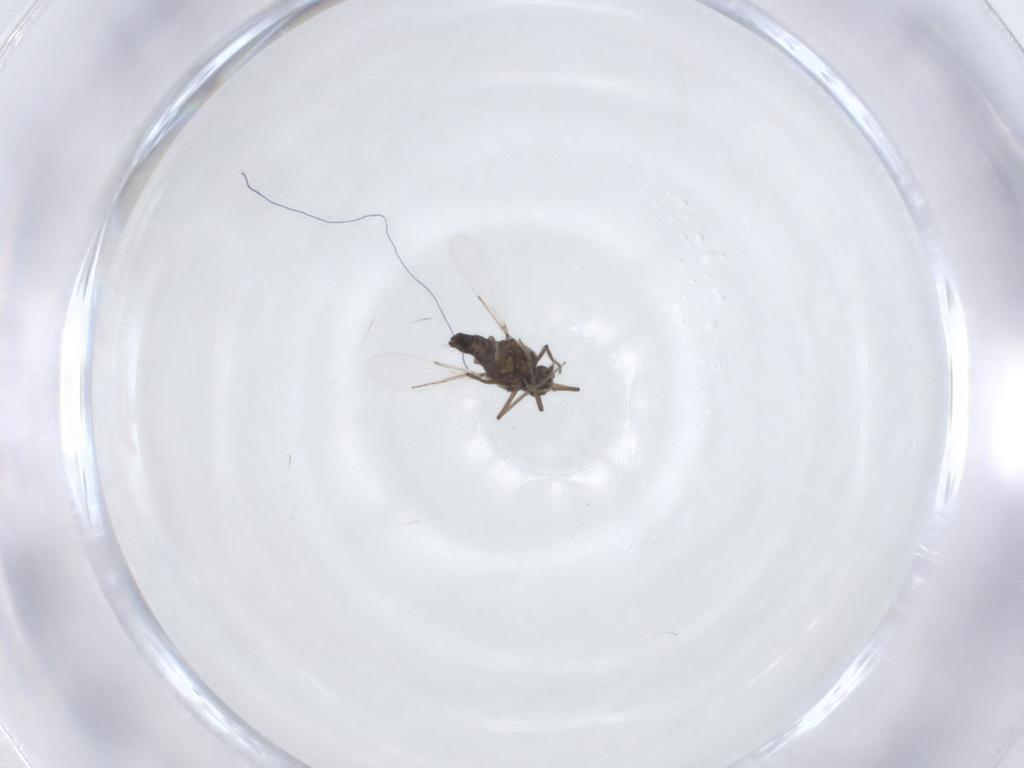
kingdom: Animalia
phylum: Arthropoda
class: Insecta
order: Diptera
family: Ceratopogonidae
